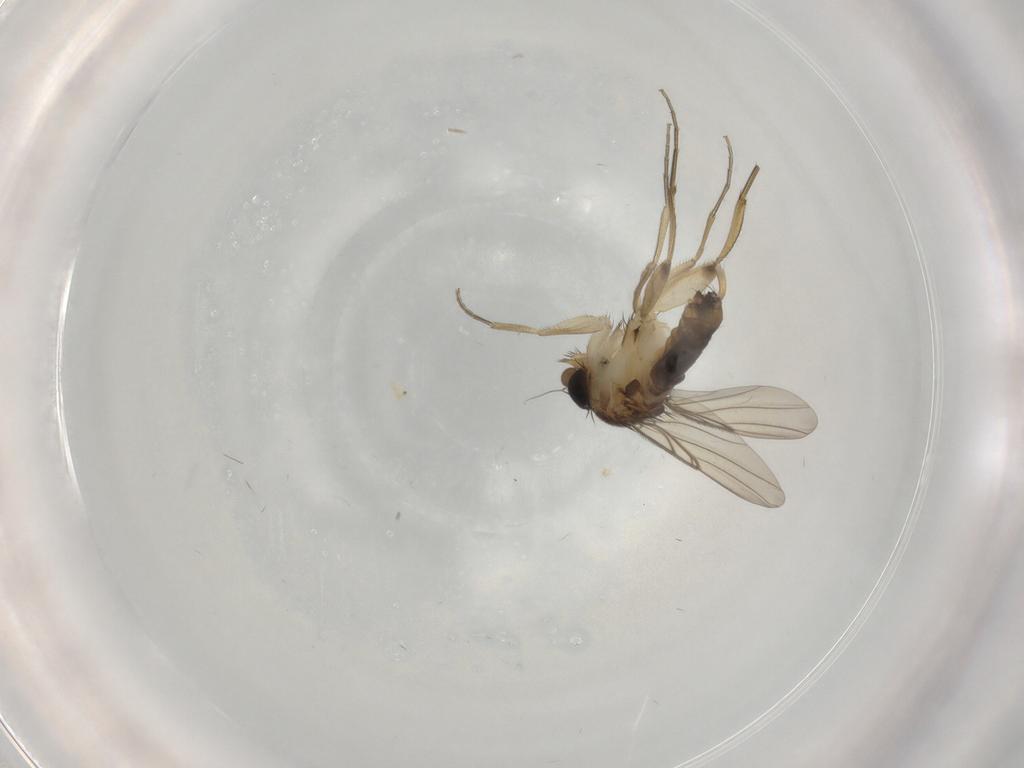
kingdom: Animalia
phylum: Arthropoda
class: Insecta
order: Diptera
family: Phoridae
